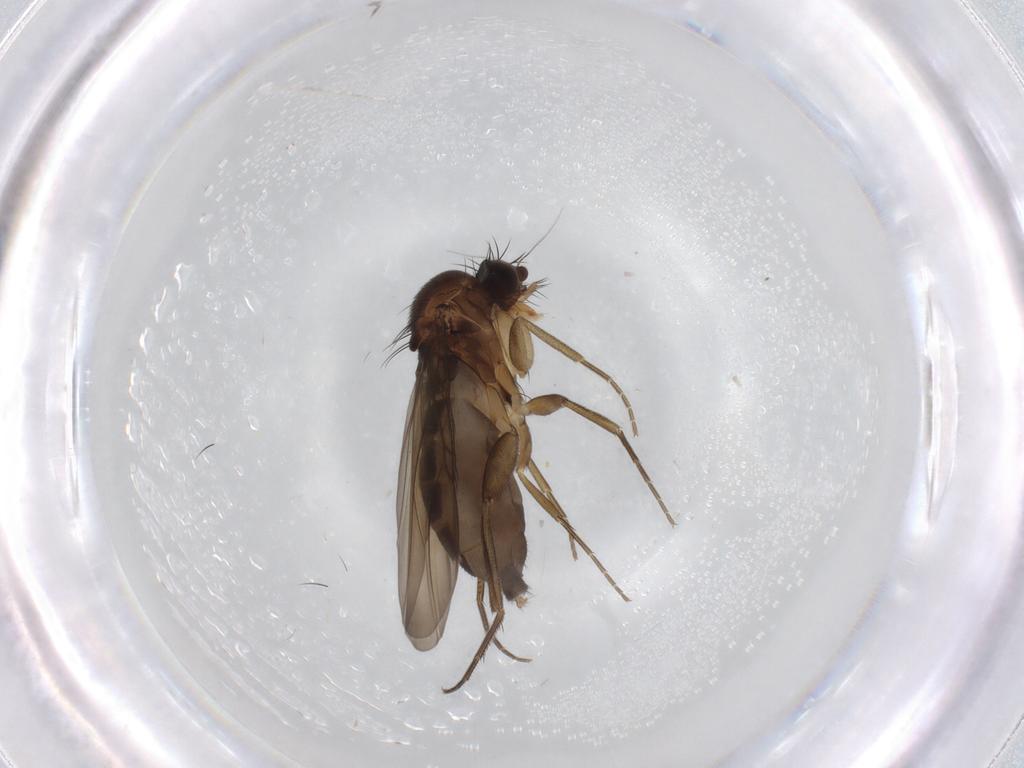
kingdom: Animalia
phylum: Arthropoda
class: Insecta
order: Diptera
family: Phoridae
